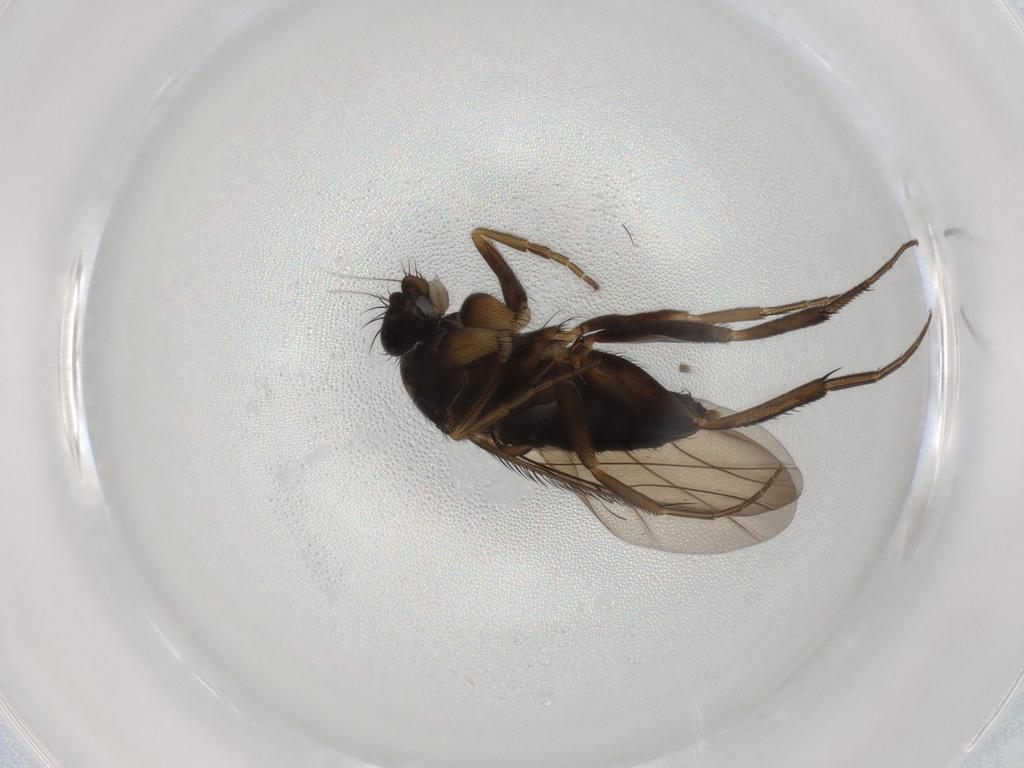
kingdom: Animalia
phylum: Arthropoda
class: Insecta
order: Diptera
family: Phoridae
